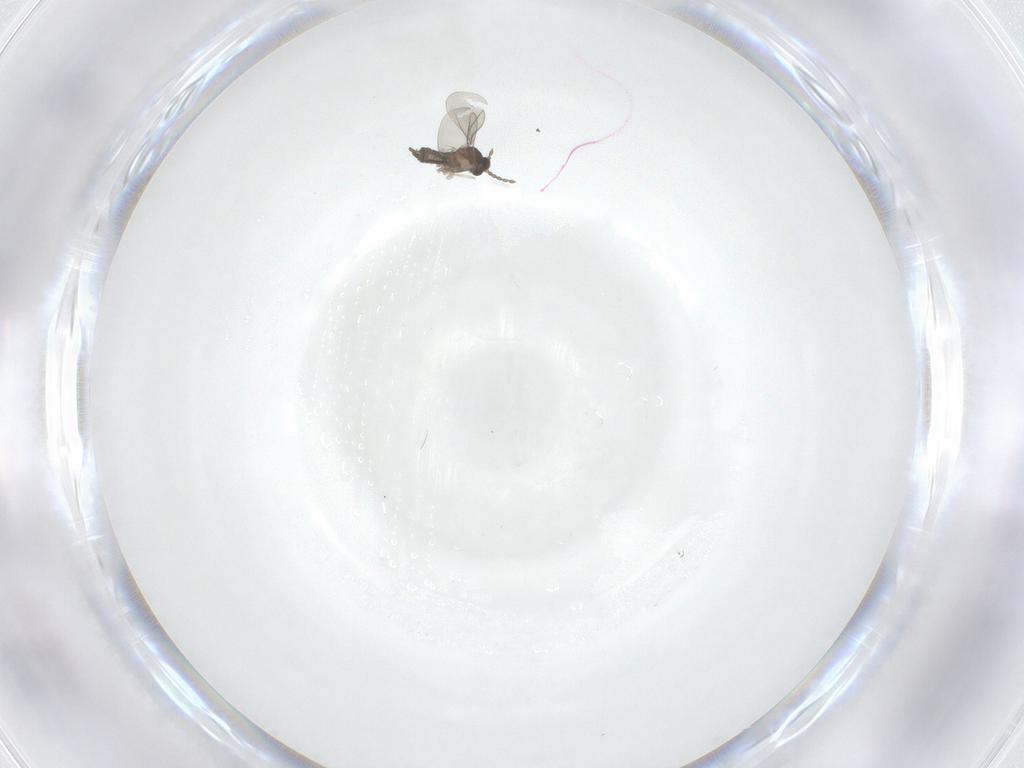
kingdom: Animalia
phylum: Arthropoda
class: Insecta
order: Diptera
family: Cecidomyiidae
